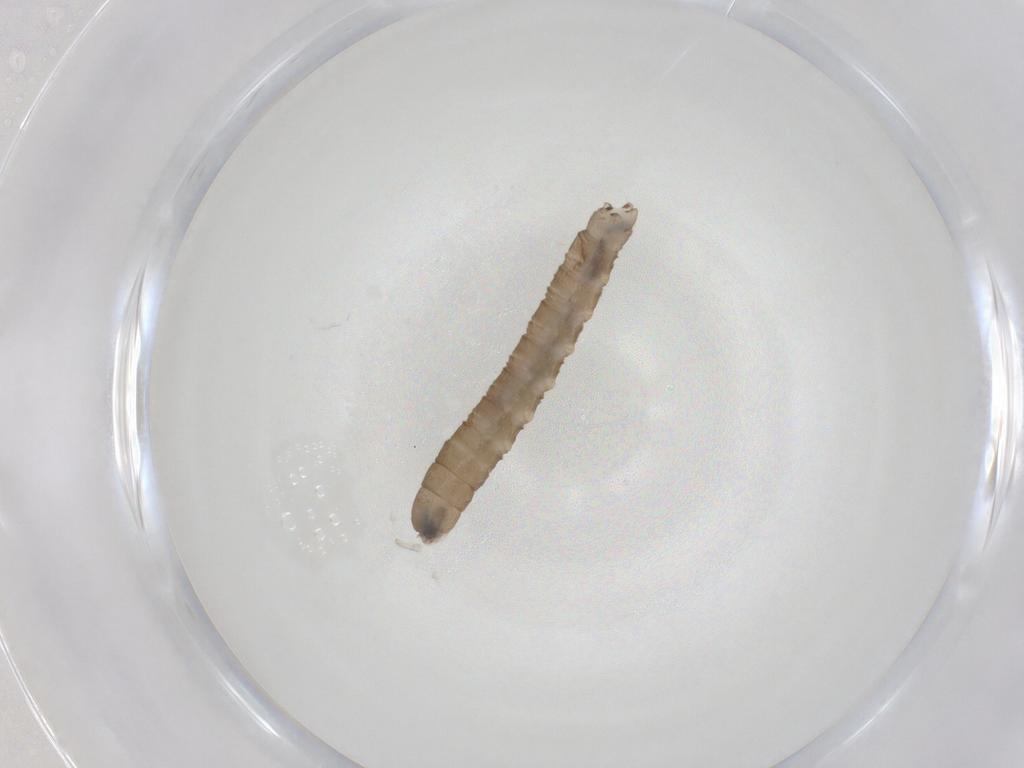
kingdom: Animalia
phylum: Arthropoda
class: Insecta
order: Diptera
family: Limoniidae
